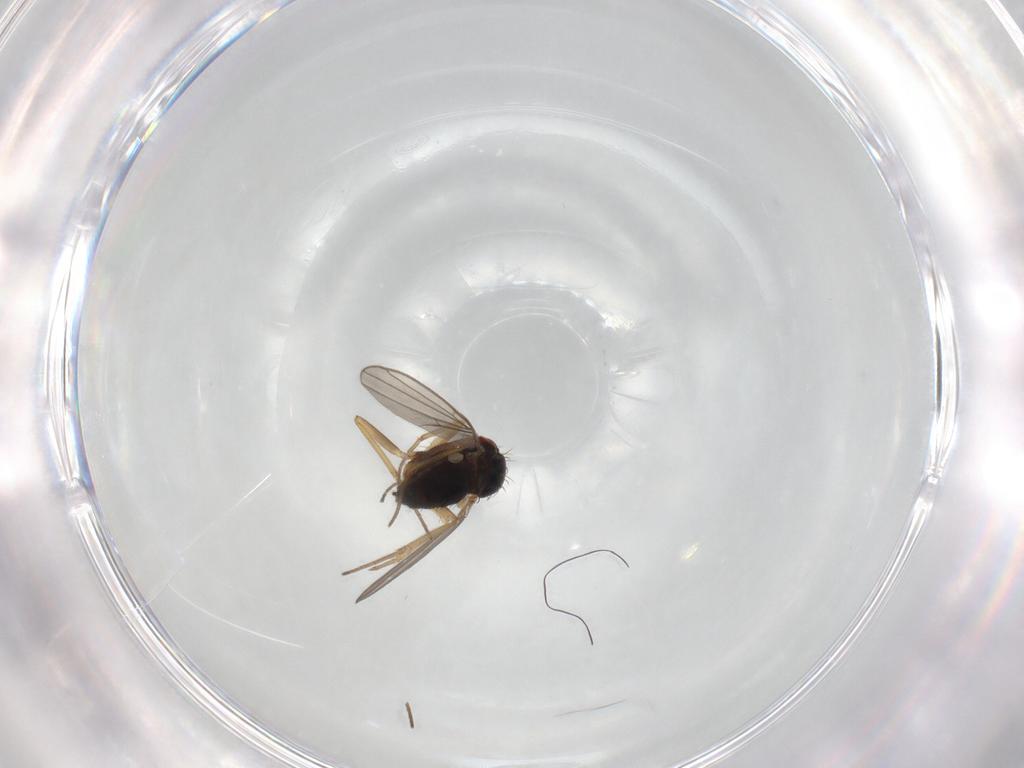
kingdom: Animalia
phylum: Arthropoda
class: Insecta
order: Diptera
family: Dolichopodidae
